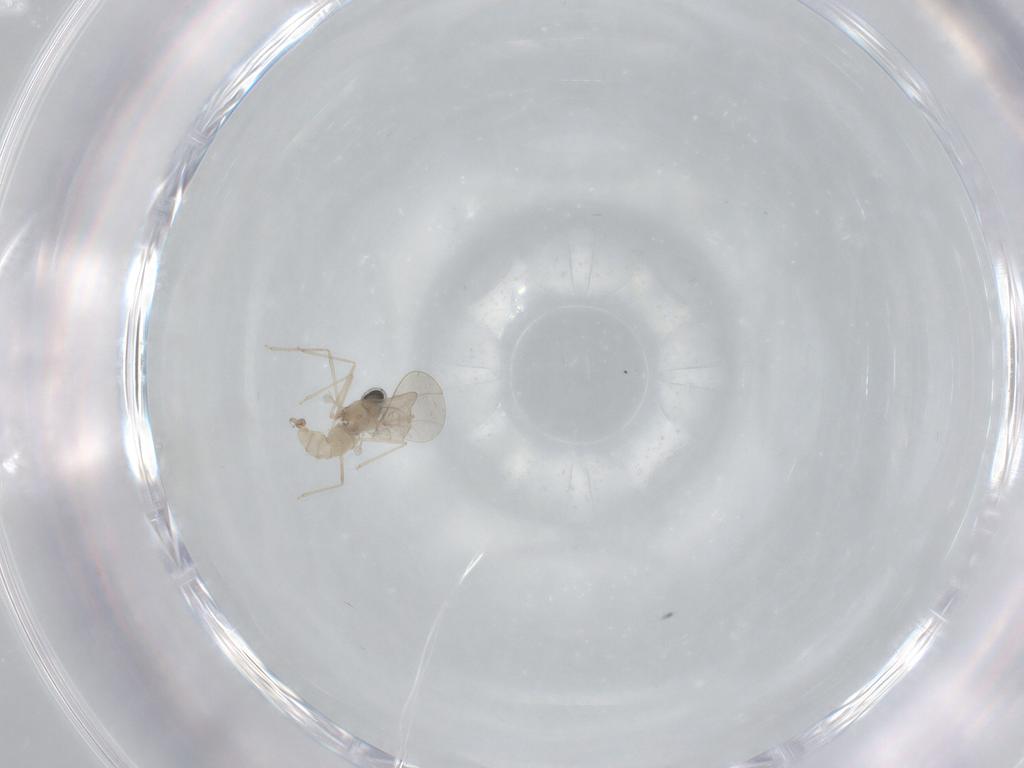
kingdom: Animalia
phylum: Arthropoda
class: Insecta
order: Diptera
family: Cecidomyiidae
